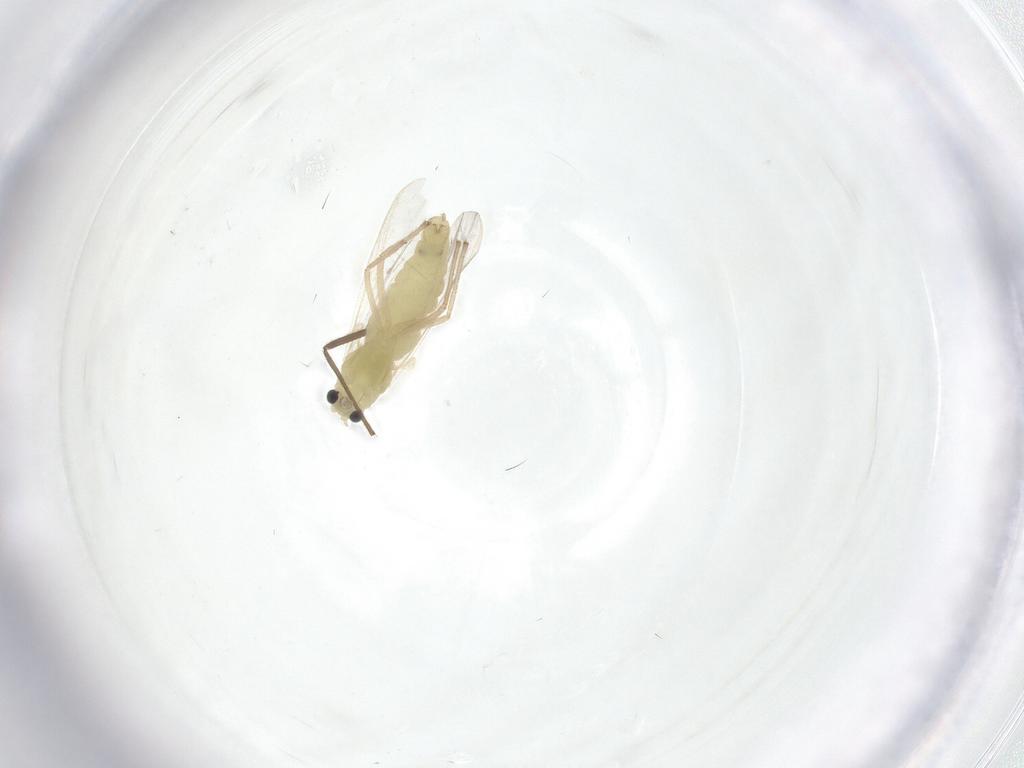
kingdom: Animalia
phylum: Arthropoda
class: Insecta
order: Diptera
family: Chironomidae
